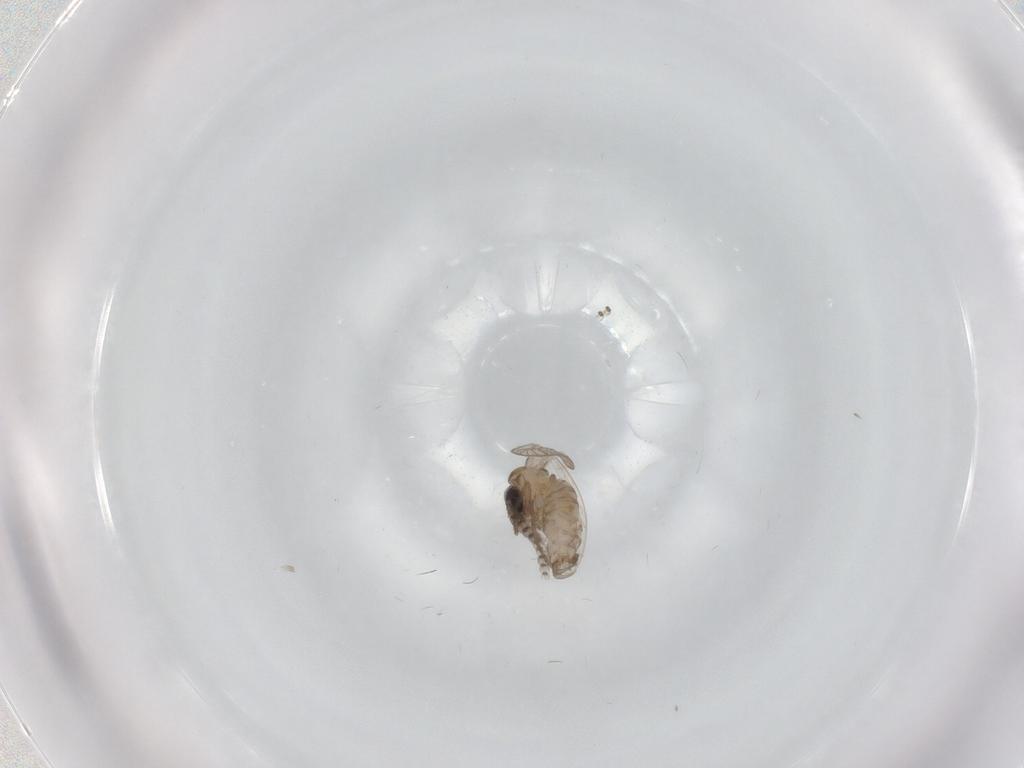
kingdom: Animalia
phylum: Arthropoda
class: Insecta
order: Diptera
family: Psychodidae
